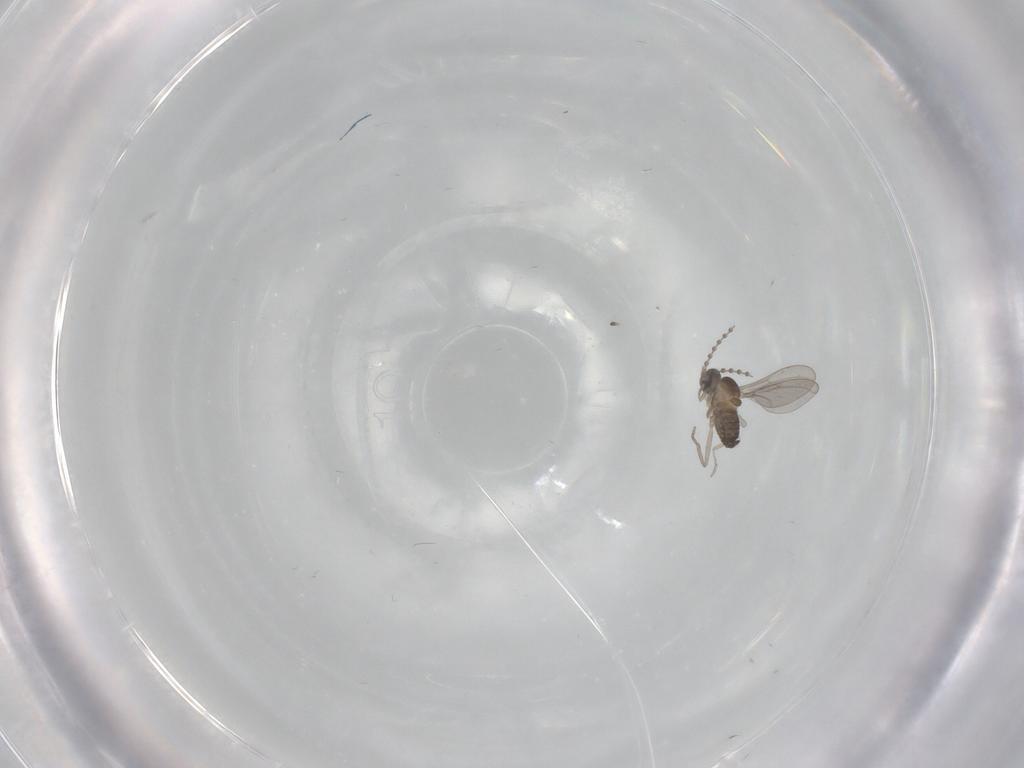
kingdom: Animalia
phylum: Arthropoda
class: Insecta
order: Diptera
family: Cecidomyiidae
